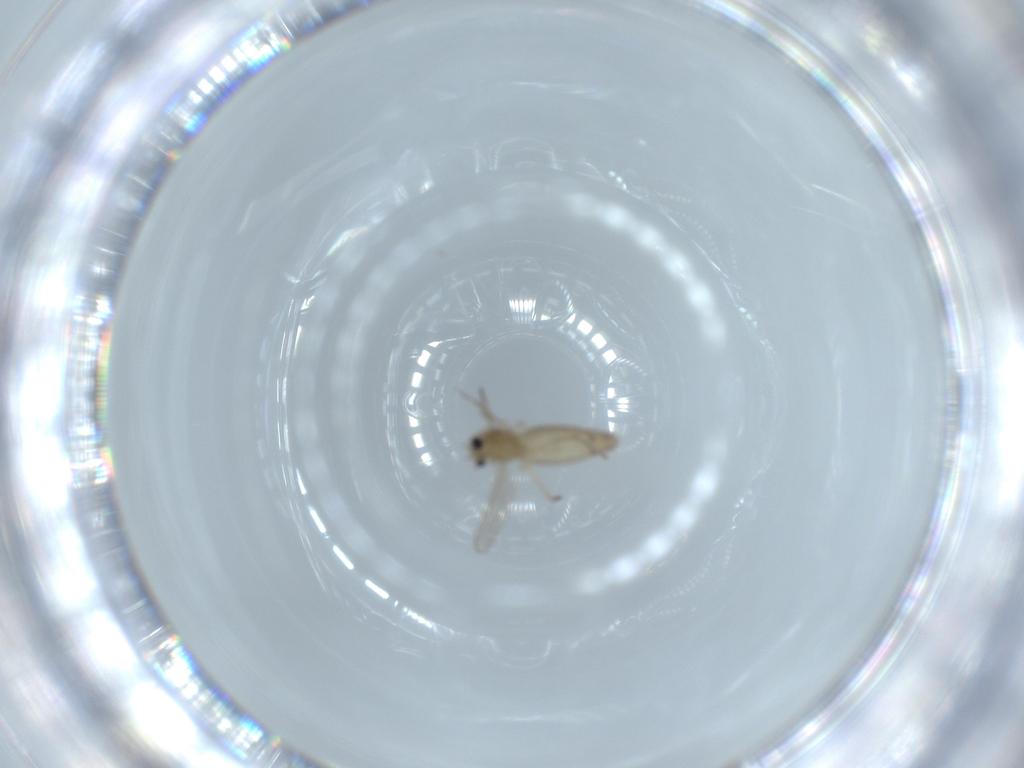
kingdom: Animalia
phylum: Arthropoda
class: Insecta
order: Diptera
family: Chironomidae
